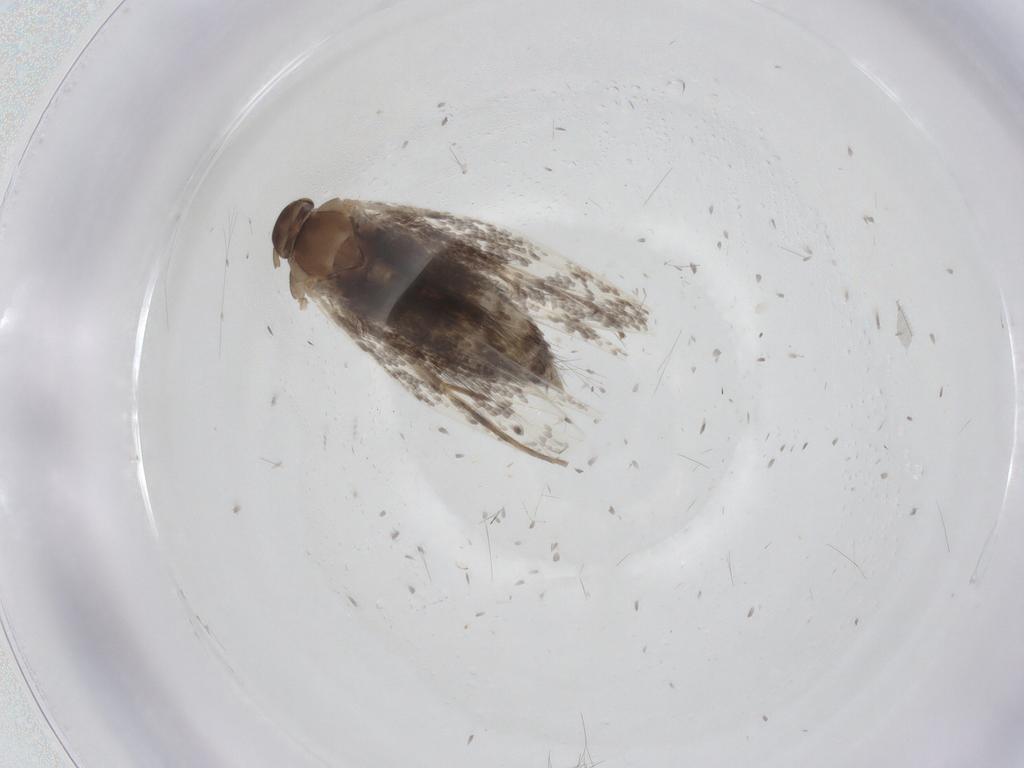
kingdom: Animalia
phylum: Arthropoda
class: Insecta
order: Lepidoptera
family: Elachistidae
